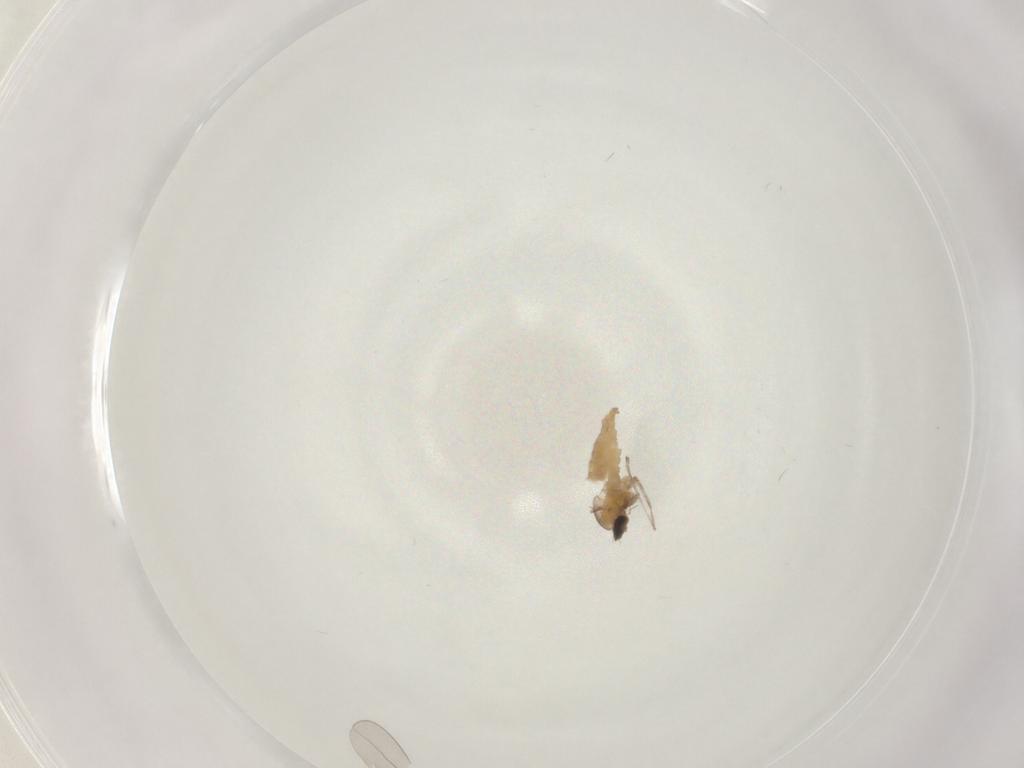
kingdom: Animalia
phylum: Arthropoda
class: Insecta
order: Diptera
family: Cecidomyiidae
